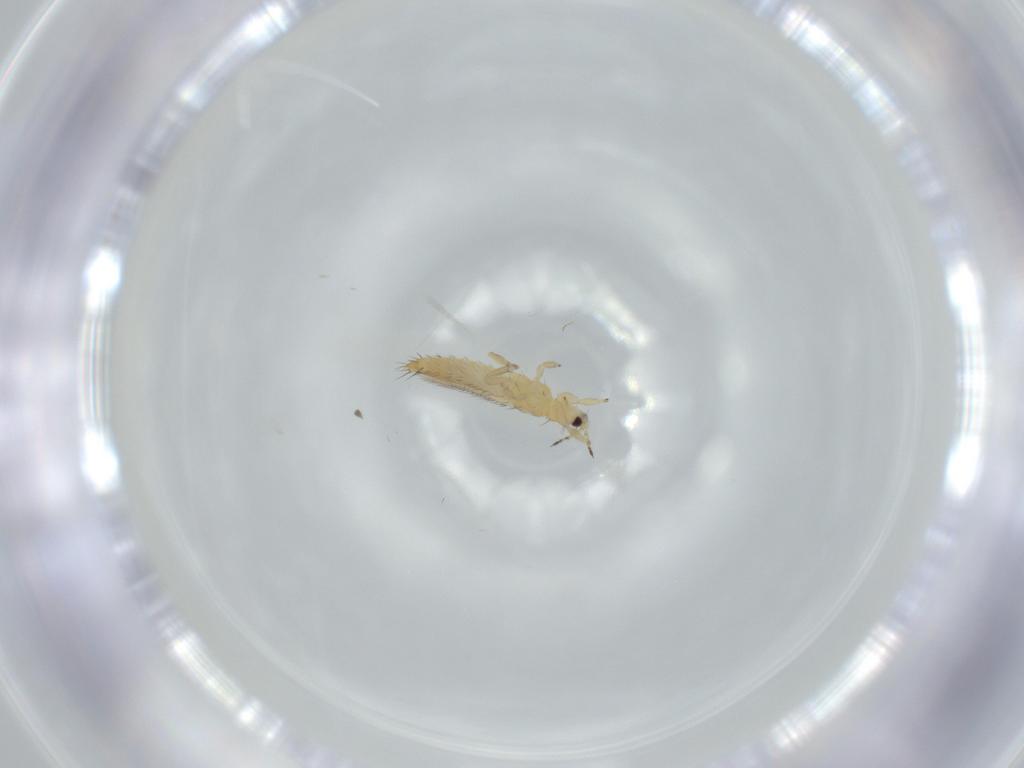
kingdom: Animalia
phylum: Arthropoda
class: Insecta
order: Thysanoptera
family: Thripidae
